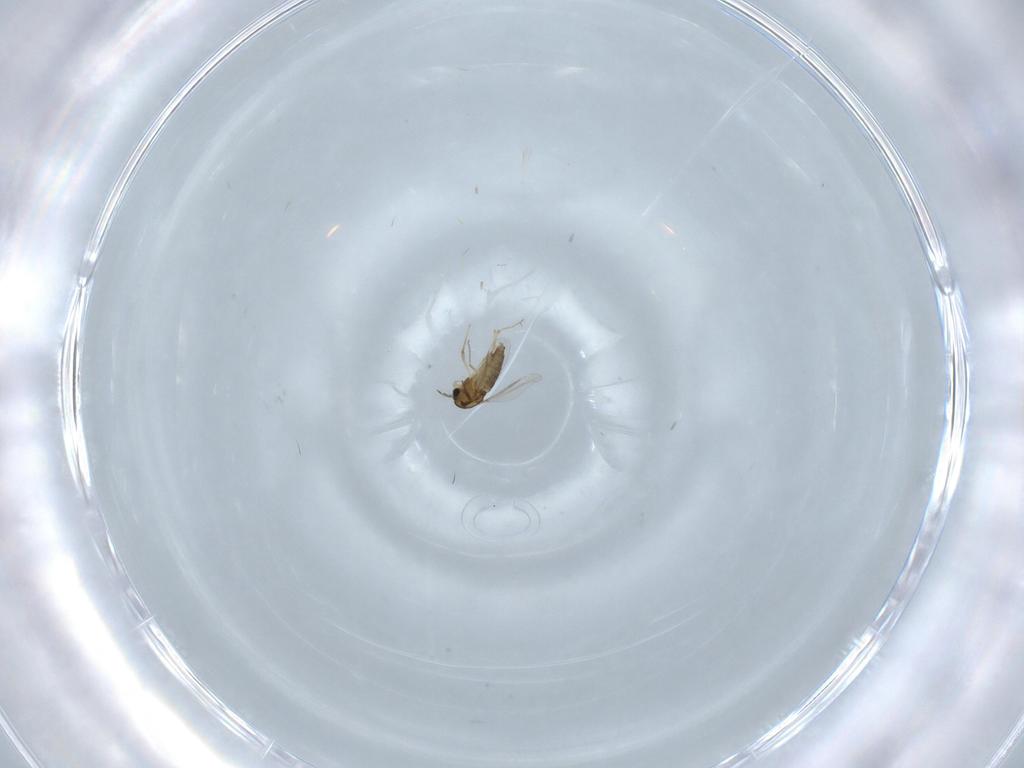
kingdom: Animalia
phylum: Arthropoda
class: Insecta
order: Diptera
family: Chironomidae
